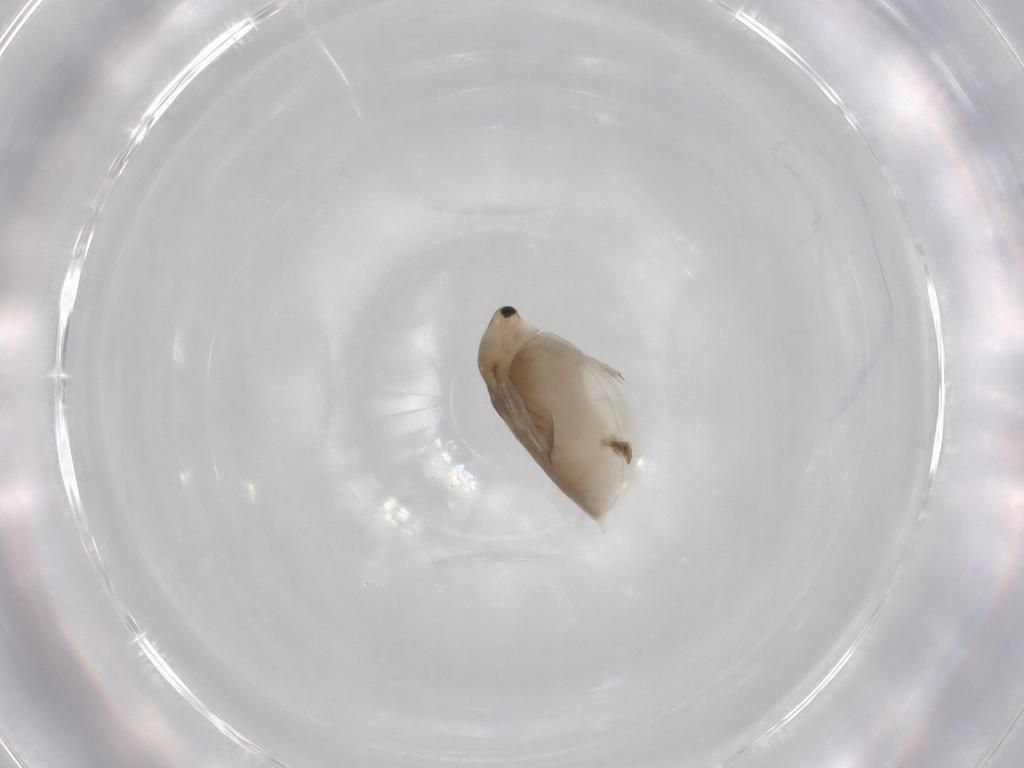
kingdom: Animalia
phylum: Arthropoda
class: Branchiopoda
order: Diplostraca
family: Daphniidae
